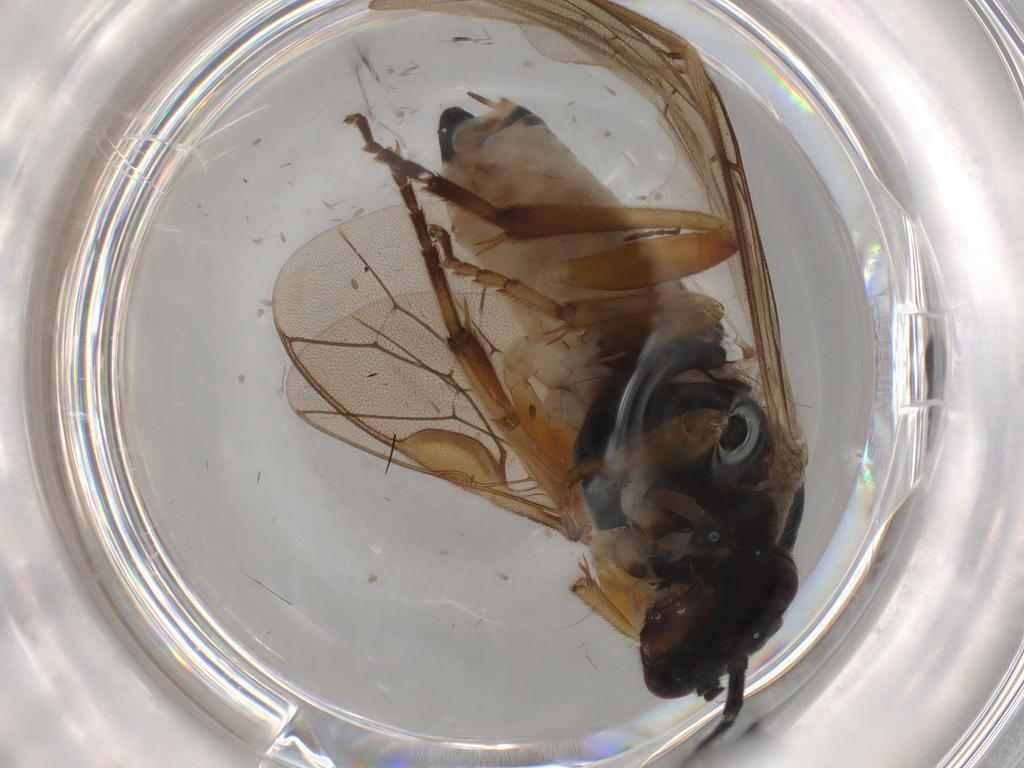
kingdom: Animalia
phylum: Arthropoda
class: Insecta
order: Hymenoptera
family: Tenthredinidae
